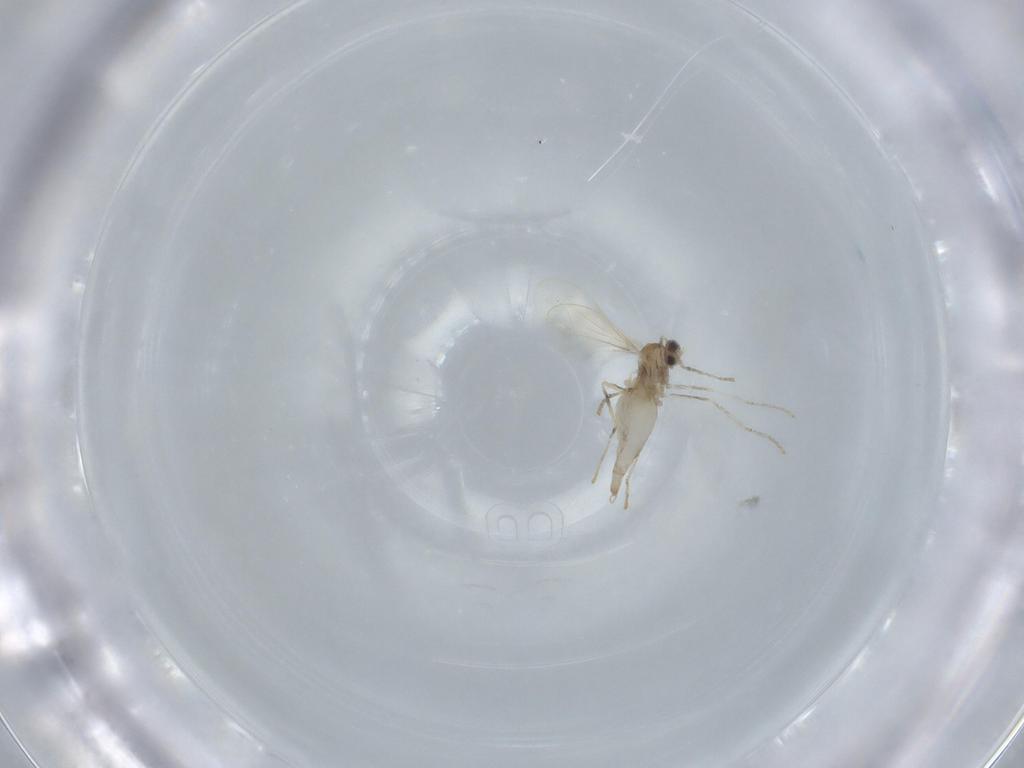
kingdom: Animalia
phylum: Arthropoda
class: Insecta
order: Diptera
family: Cecidomyiidae
